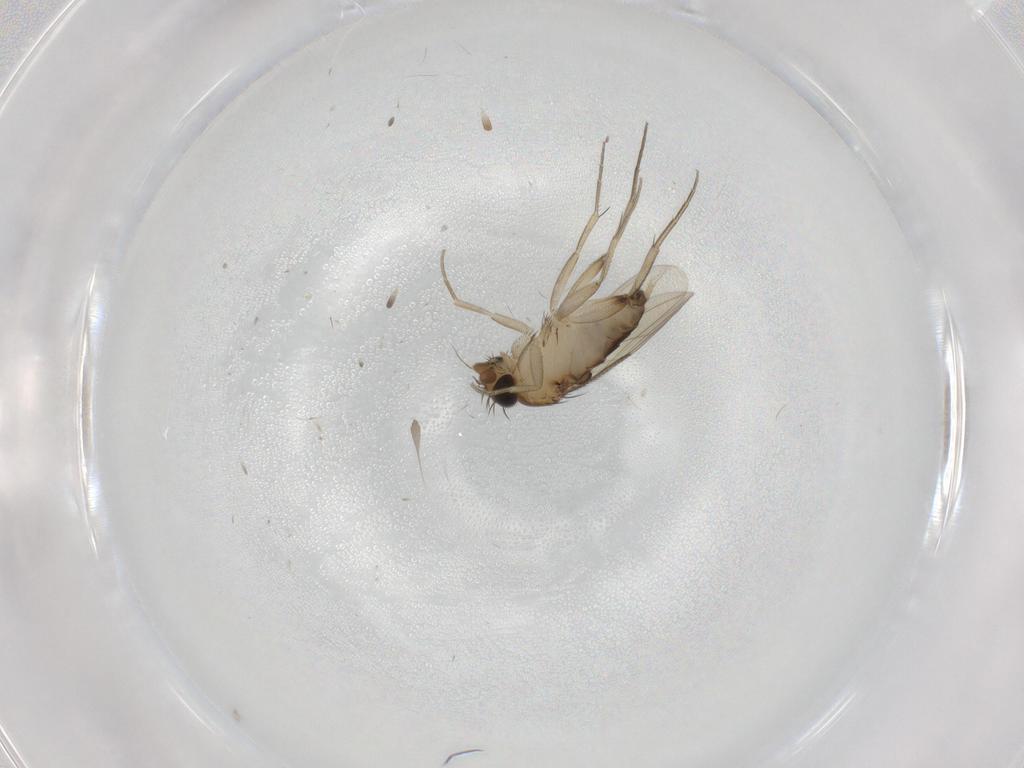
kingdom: Animalia
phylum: Arthropoda
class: Insecta
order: Diptera
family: Phoridae
